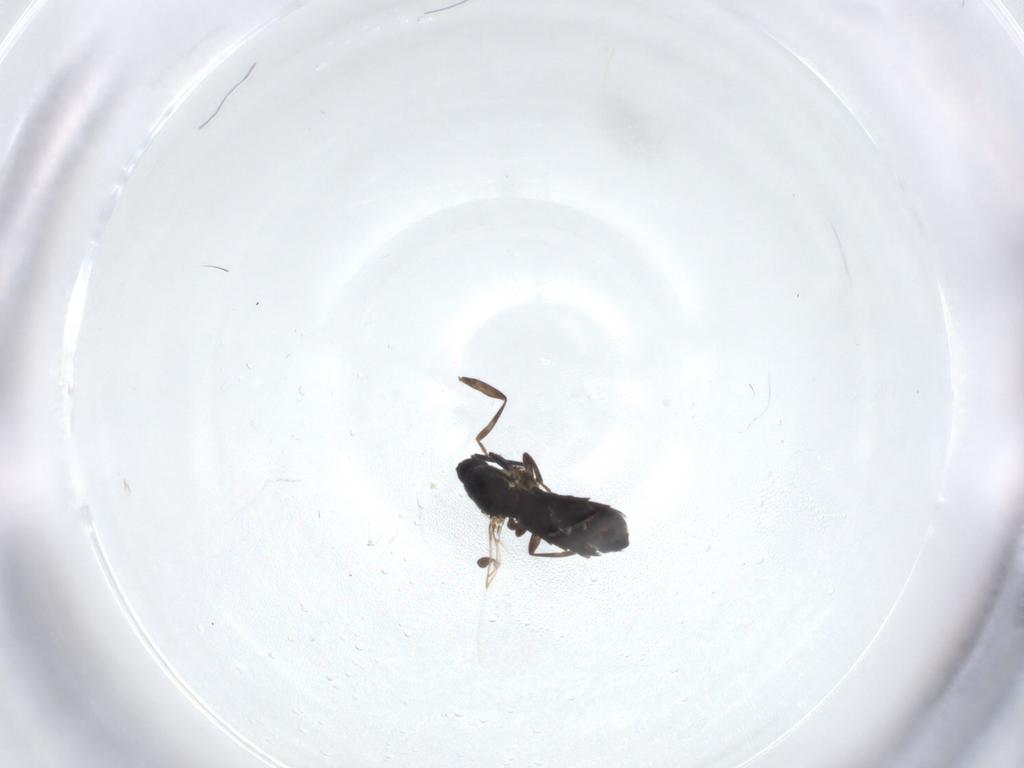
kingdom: Animalia
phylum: Arthropoda
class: Insecta
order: Diptera
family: Scatopsidae
